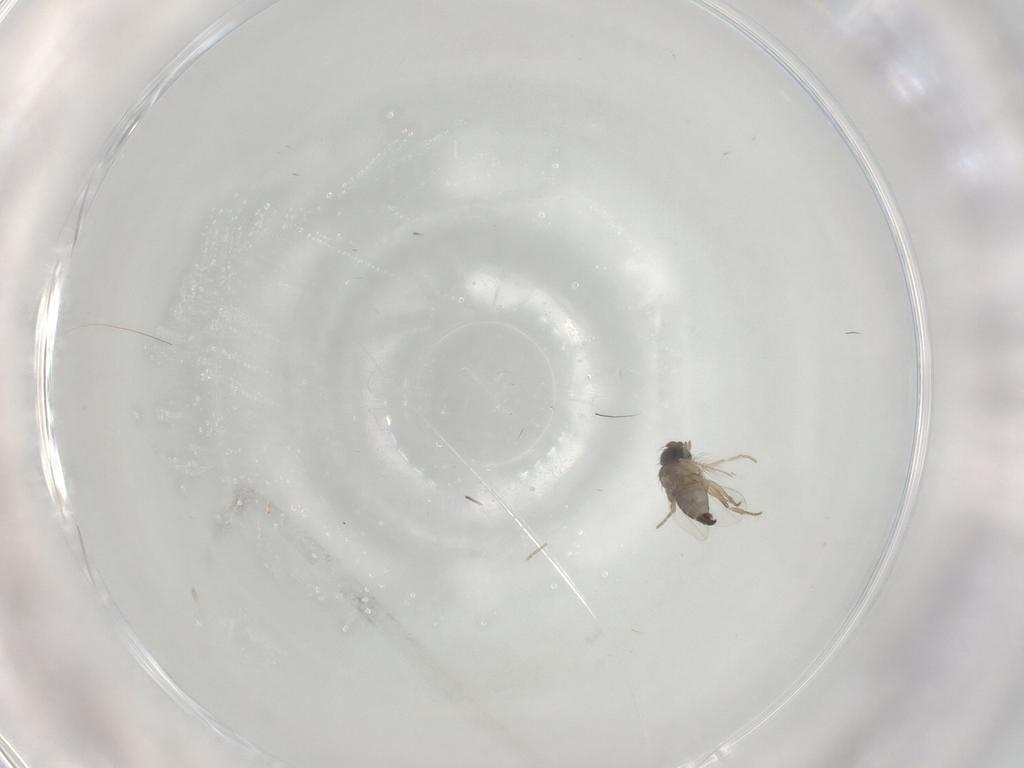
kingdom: Animalia
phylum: Arthropoda
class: Insecta
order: Diptera
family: Phoridae
